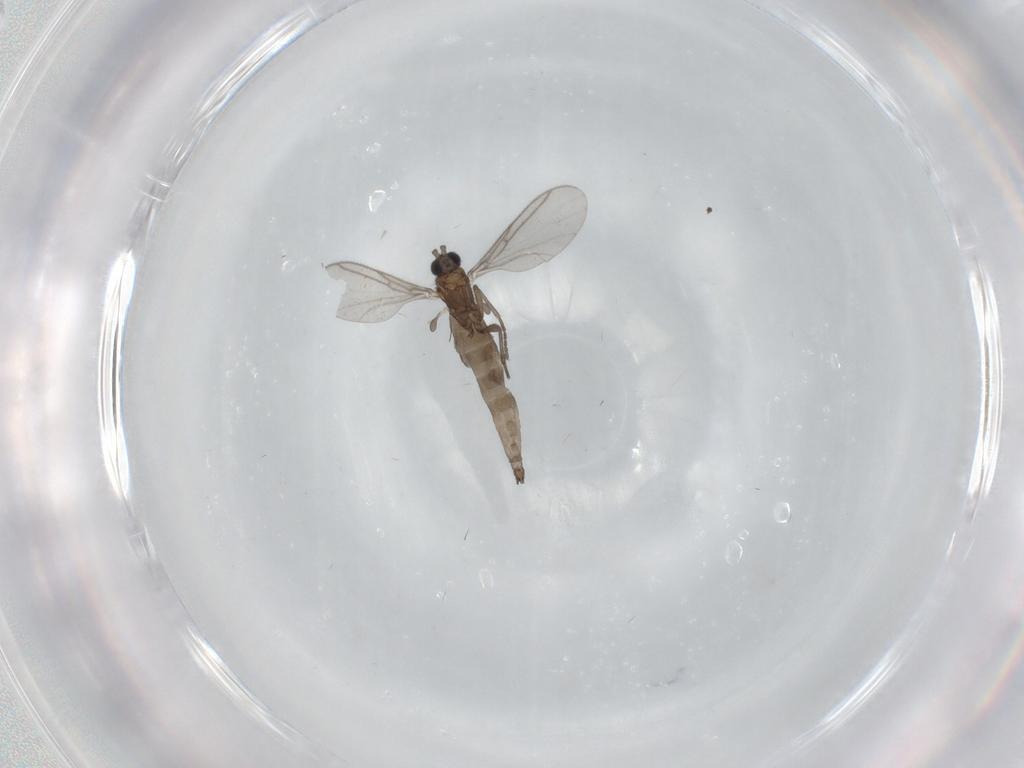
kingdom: Animalia
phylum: Arthropoda
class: Insecta
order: Diptera
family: Chironomidae
